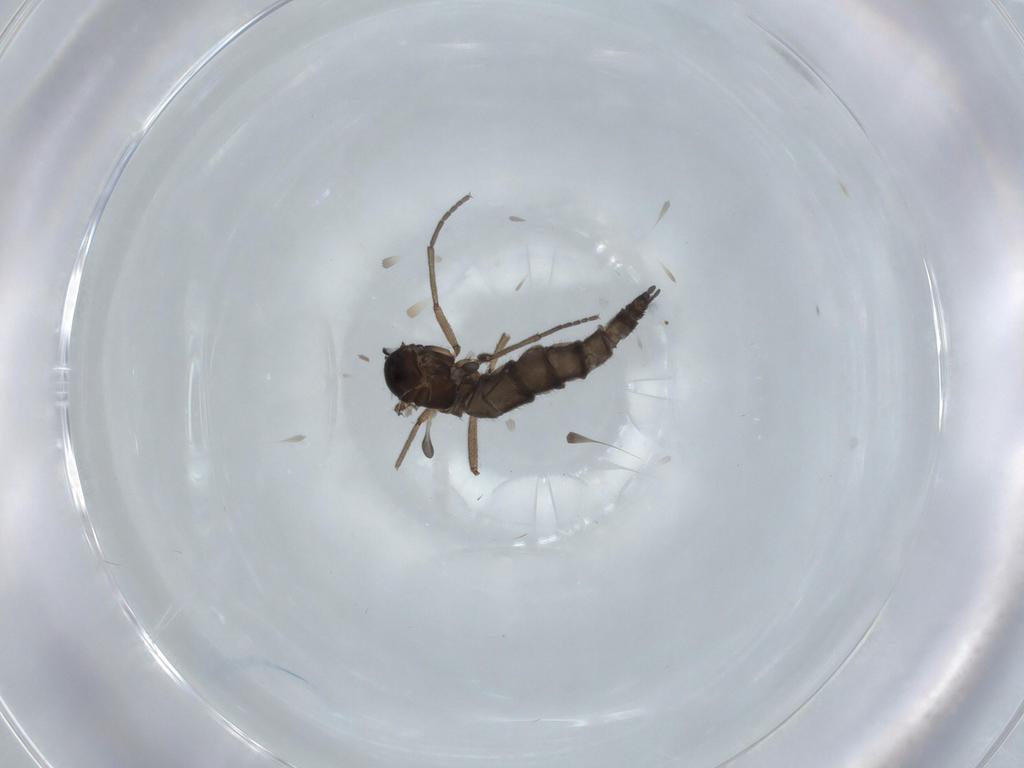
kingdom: Animalia
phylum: Arthropoda
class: Insecta
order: Diptera
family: Sciaridae
